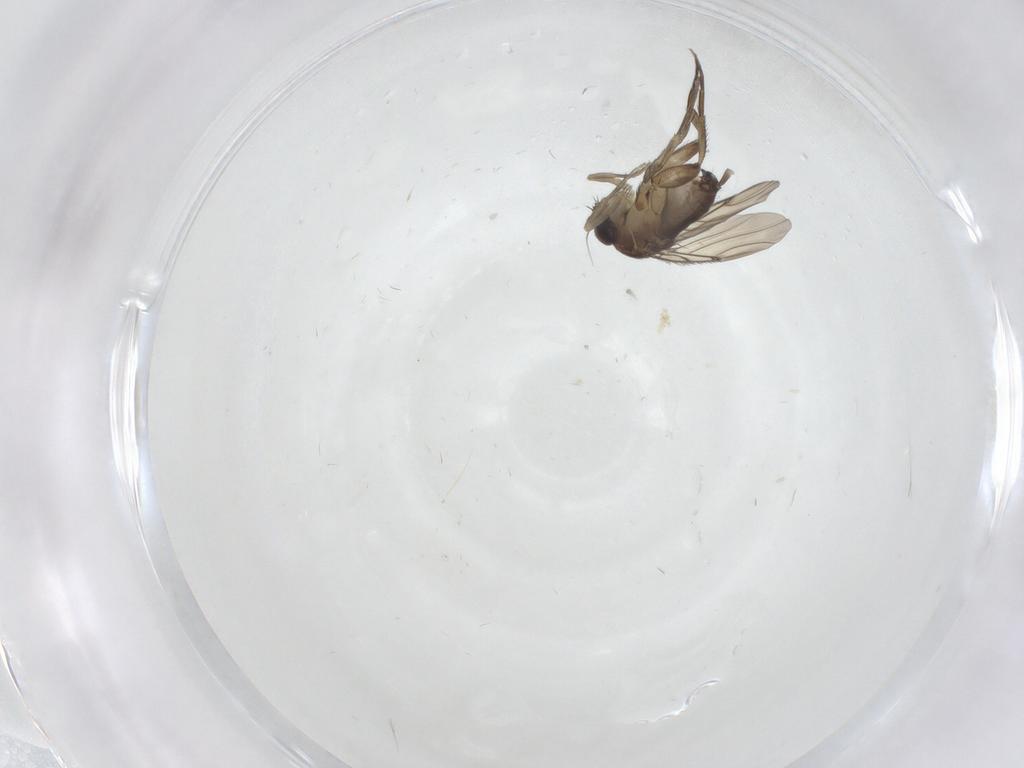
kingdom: Animalia
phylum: Arthropoda
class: Insecta
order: Diptera
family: Phoridae
